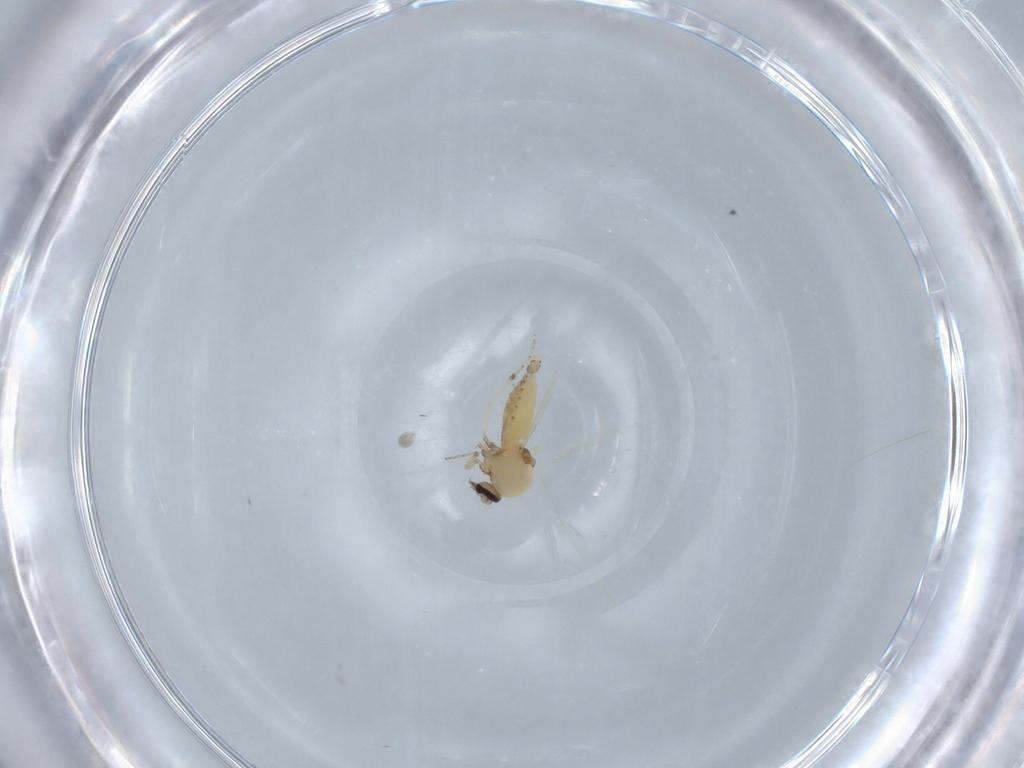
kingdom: Animalia
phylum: Arthropoda
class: Insecta
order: Diptera
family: Ceratopogonidae
